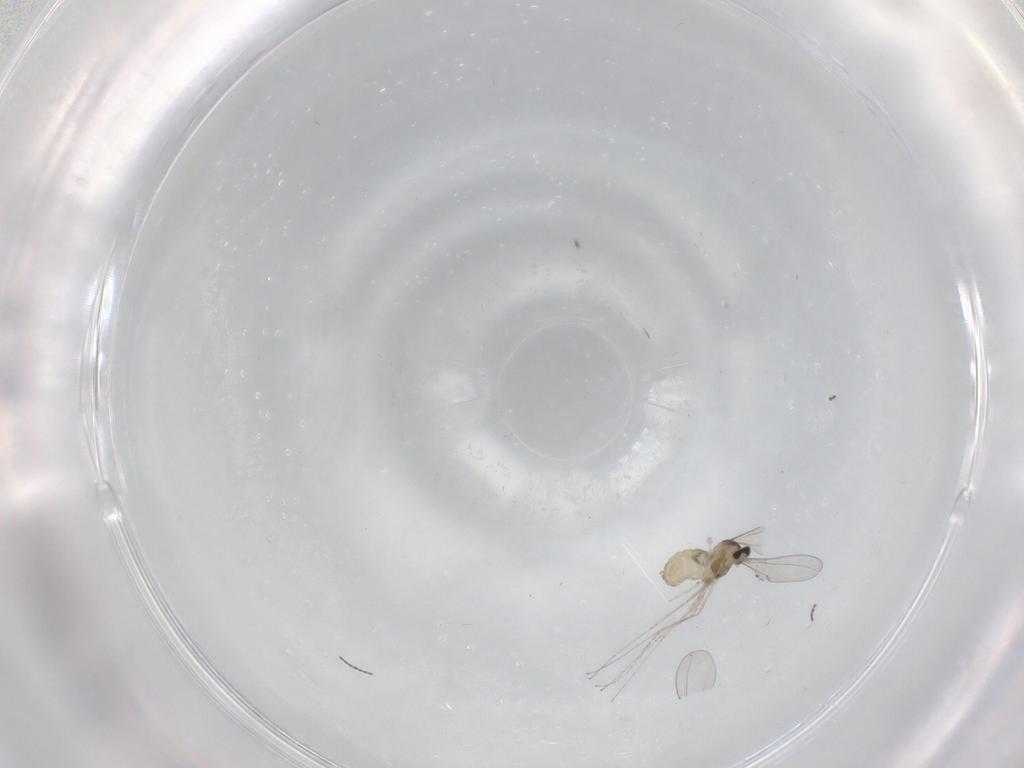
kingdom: Animalia
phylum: Arthropoda
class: Insecta
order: Diptera
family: Cecidomyiidae
